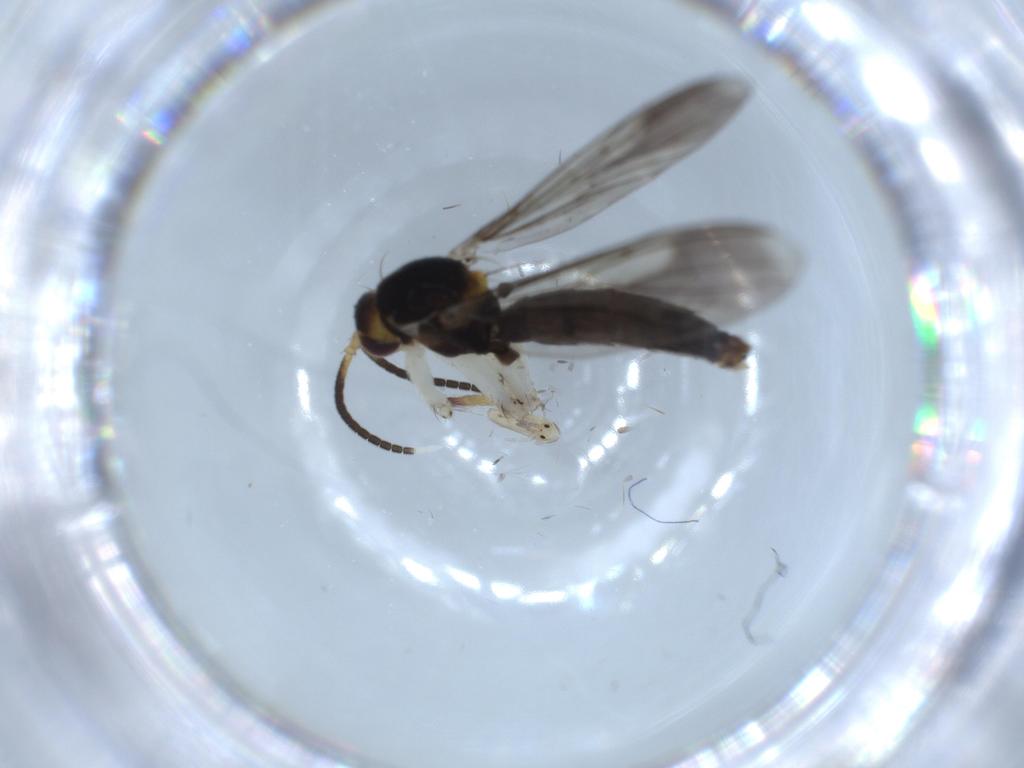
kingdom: Animalia
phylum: Arthropoda
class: Insecta
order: Diptera
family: Mycetophilidae
